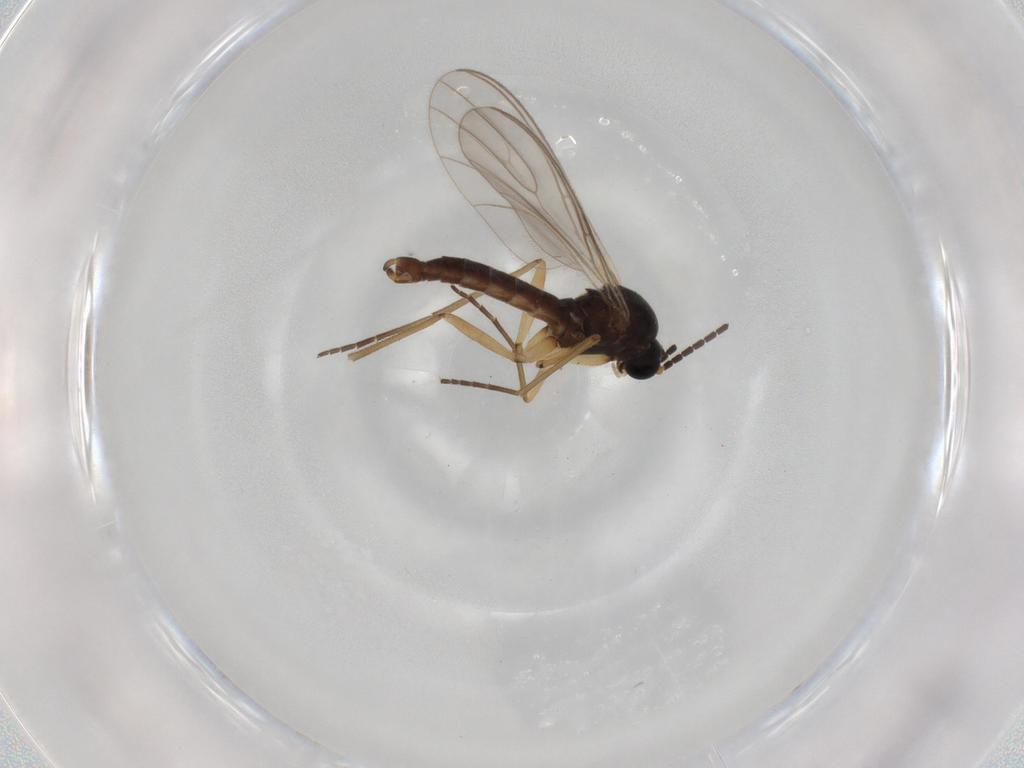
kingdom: Animalia
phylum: Arthropoda
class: Insecta
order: Diptera
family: Sciaridae
